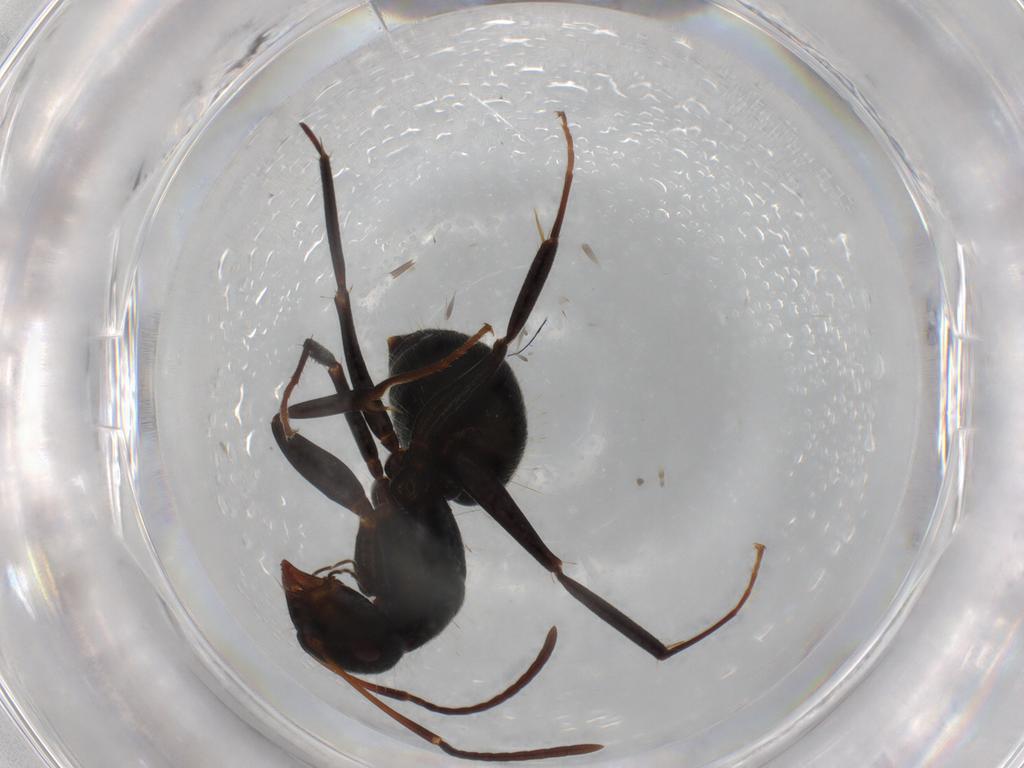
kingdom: Animalia
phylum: Arthropoda
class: Insecta
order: Hymenoptera
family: Formicidae
